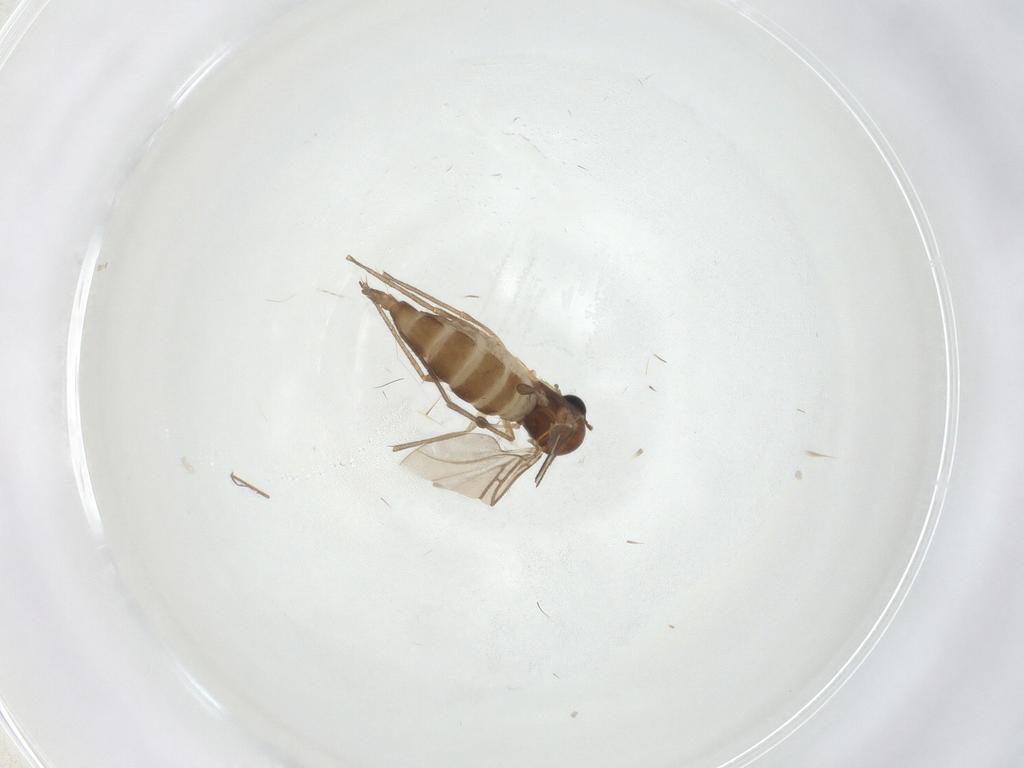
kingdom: Animalia
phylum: Arthropoda
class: Insecta
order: Diptera
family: Sciaridae
